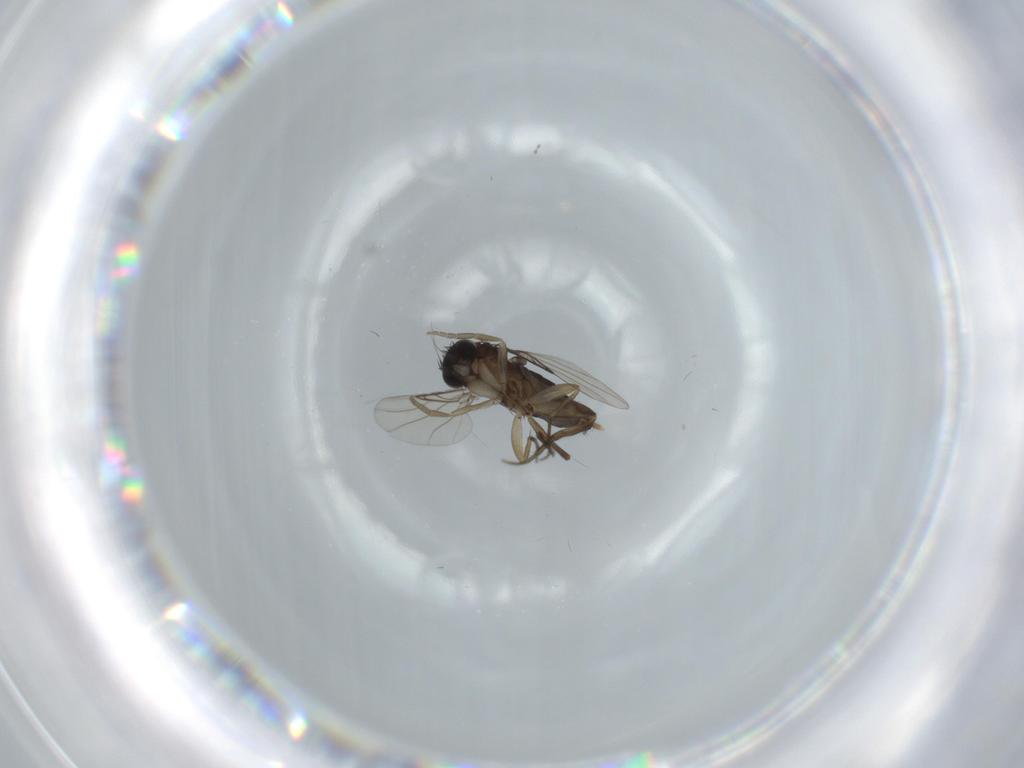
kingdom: Animalia
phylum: Arthropoda
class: Insecta
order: Diptera
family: Phoridae
